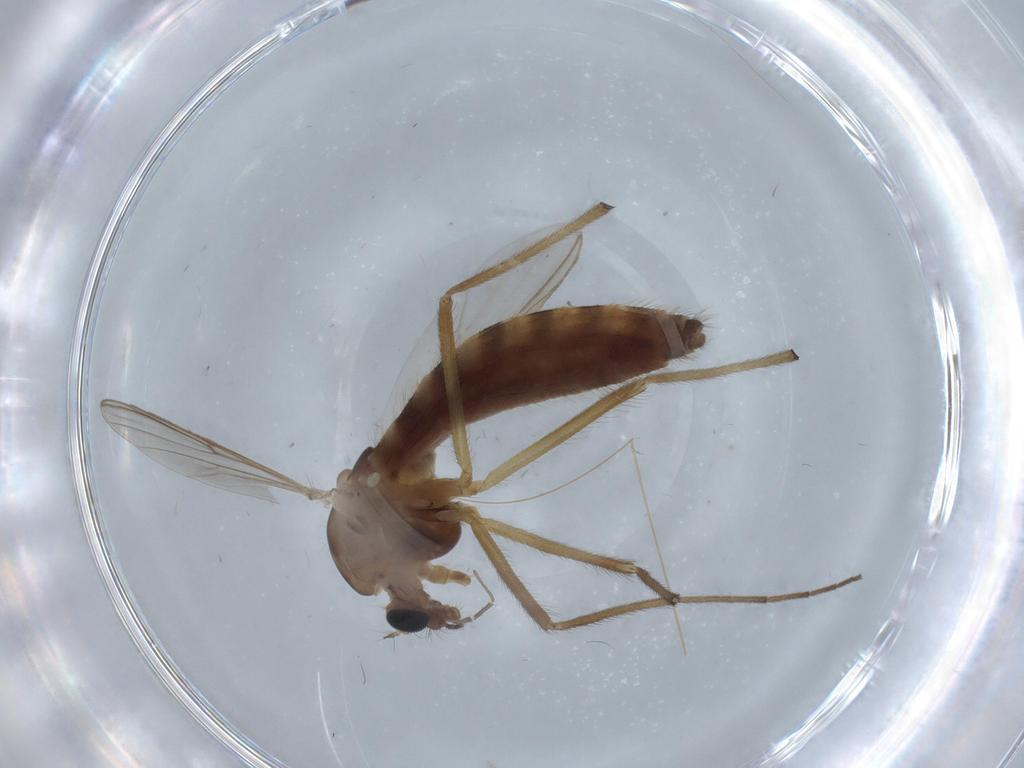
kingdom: Animalia
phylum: Arthropoda
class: Insecta
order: Diptera
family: Chironomidae
